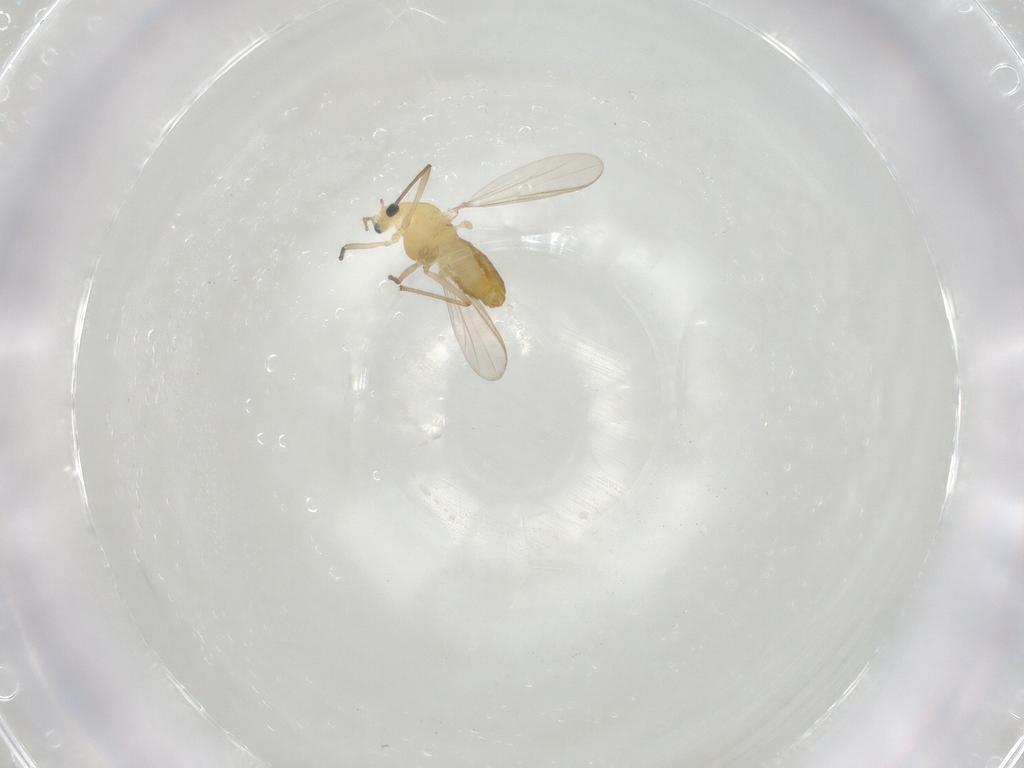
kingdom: Animalia
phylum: Arthropoda
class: Insecta
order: Diptera
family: Chironomidae
